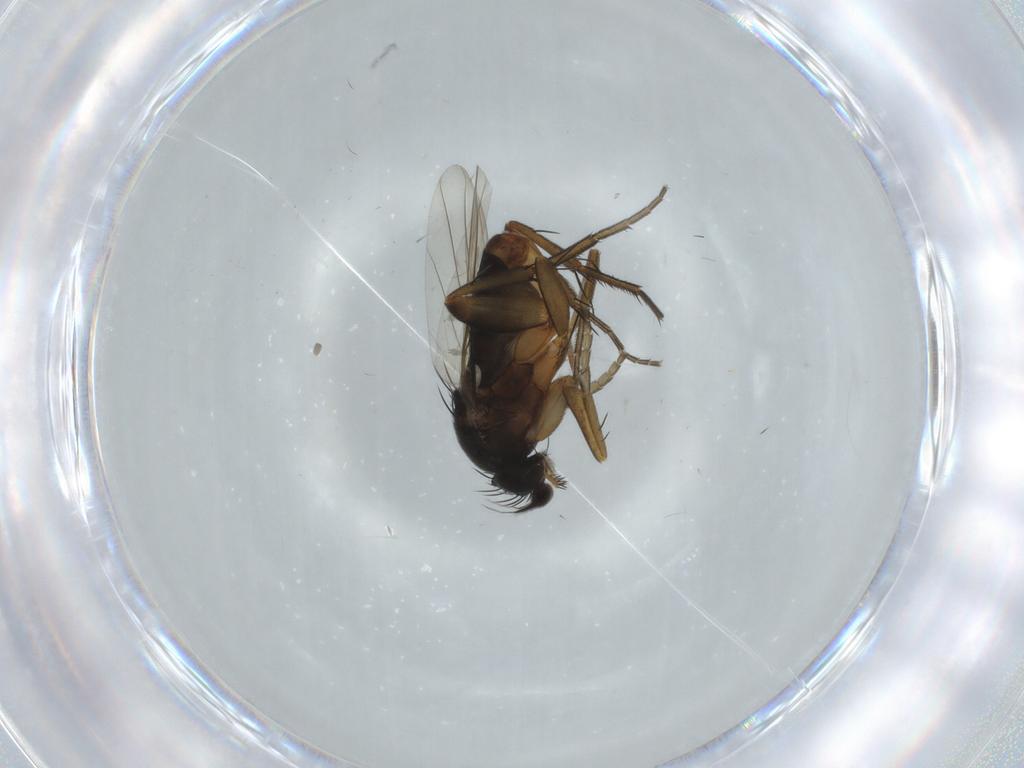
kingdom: Animalia
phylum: Arthropoda
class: Insecta
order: Diptera
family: Phoridae
